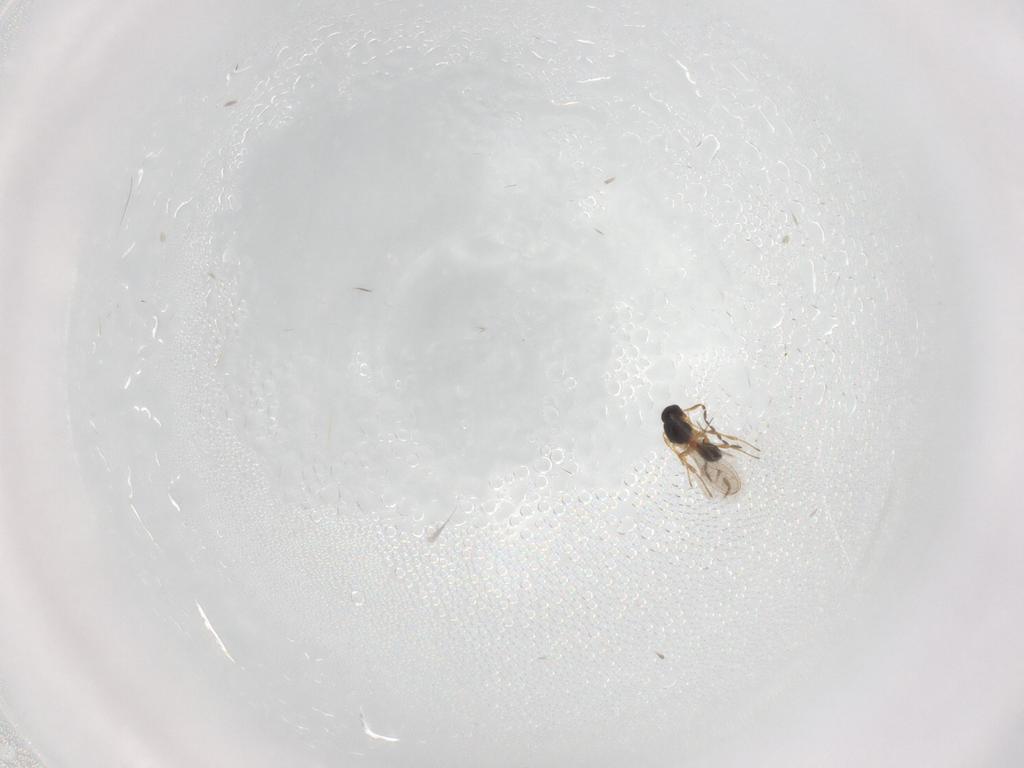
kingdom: Animalia
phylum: Arthropoda
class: Insecta
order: Hymenoptera
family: Platygastridae
